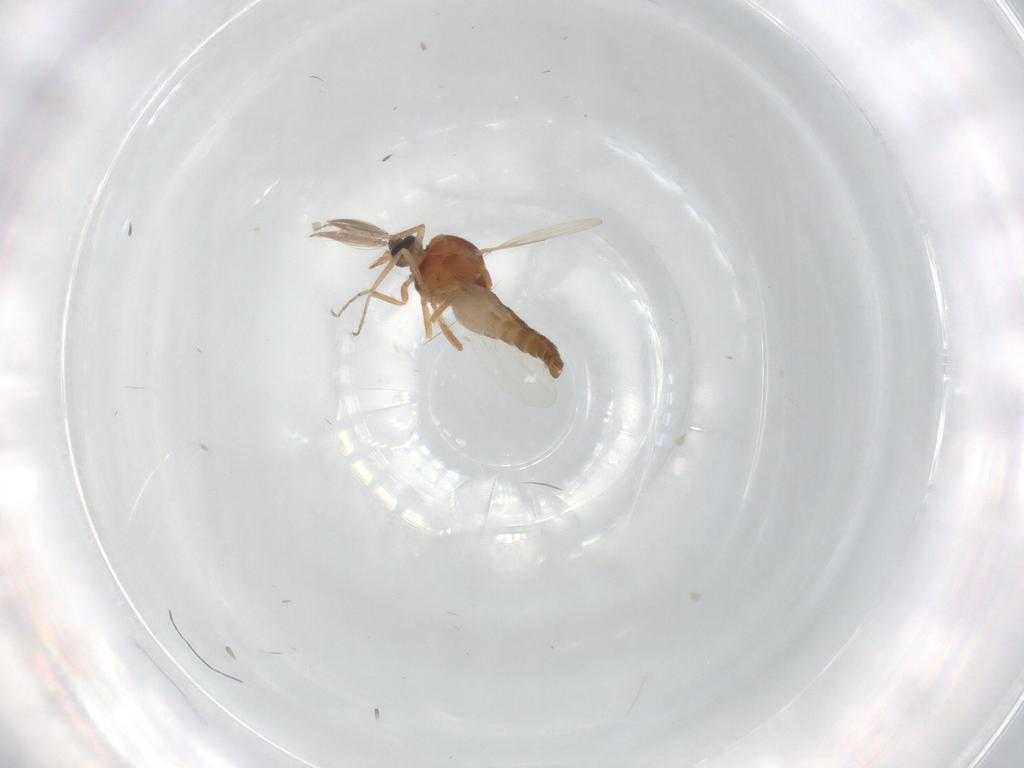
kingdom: Animalia
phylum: Arthropoda
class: Insecta
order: Diptera
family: Ceratopogonidae
